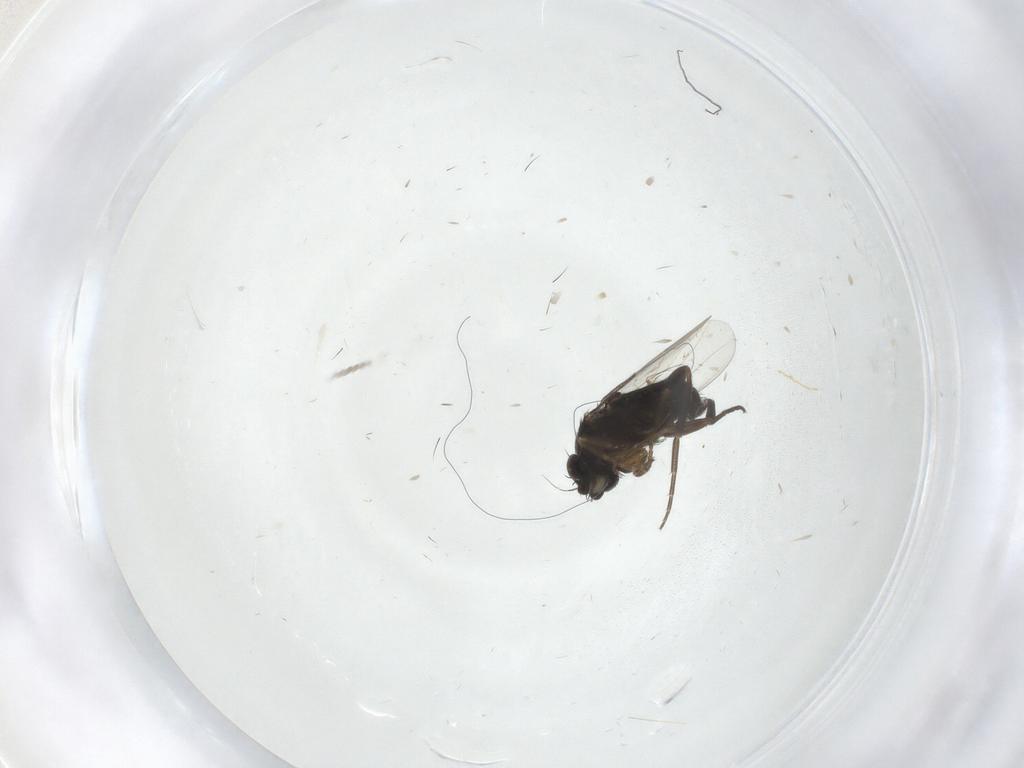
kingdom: Animalia
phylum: Arthropoda
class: Insecta
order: Diptera
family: Phoridae
